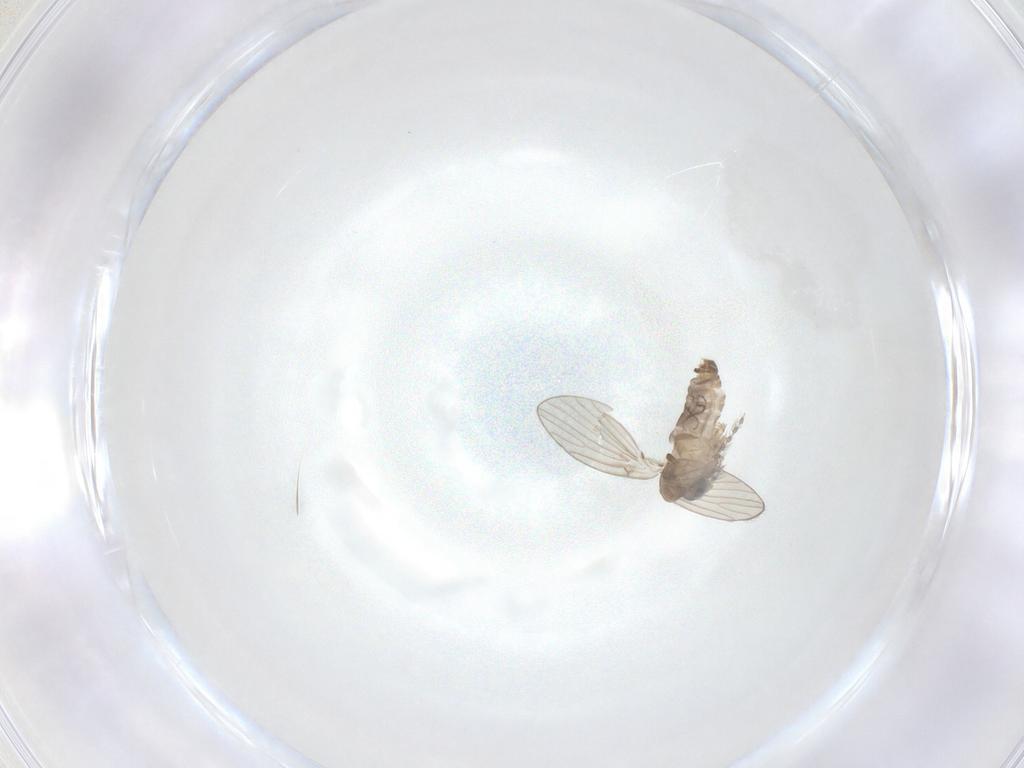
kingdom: Animalia
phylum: Arthropoda
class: Insecta
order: Diptera
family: Psychodidae
